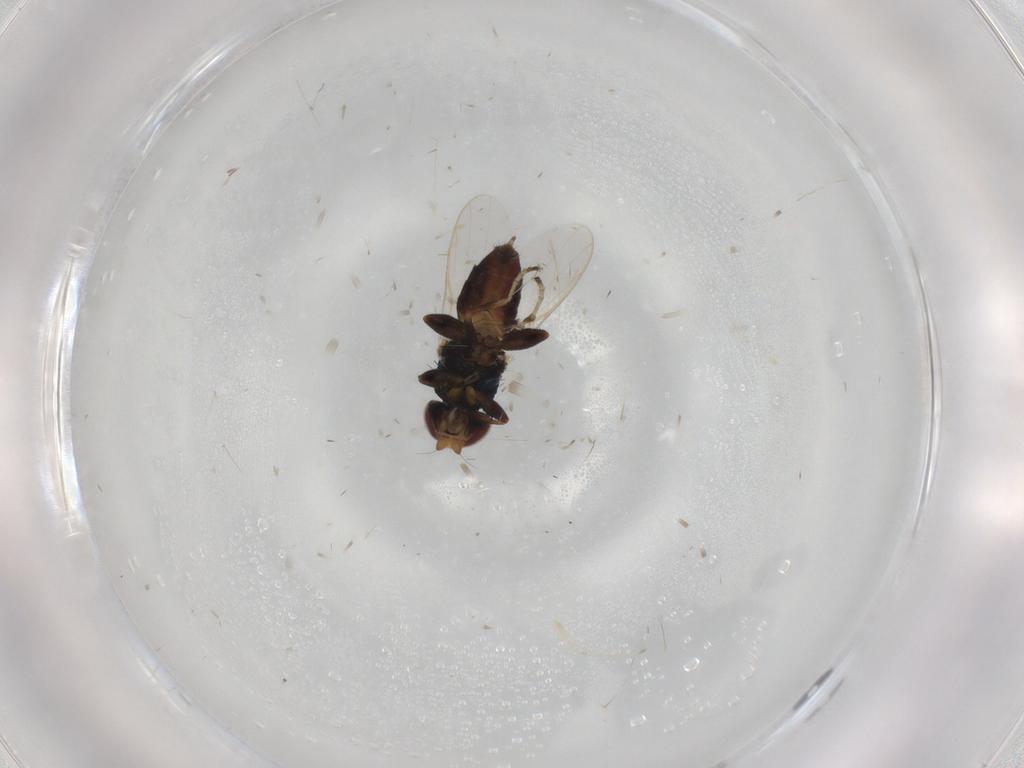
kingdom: Animalia
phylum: Arthropoda
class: Insecta
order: Diptera
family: Chloropidae
